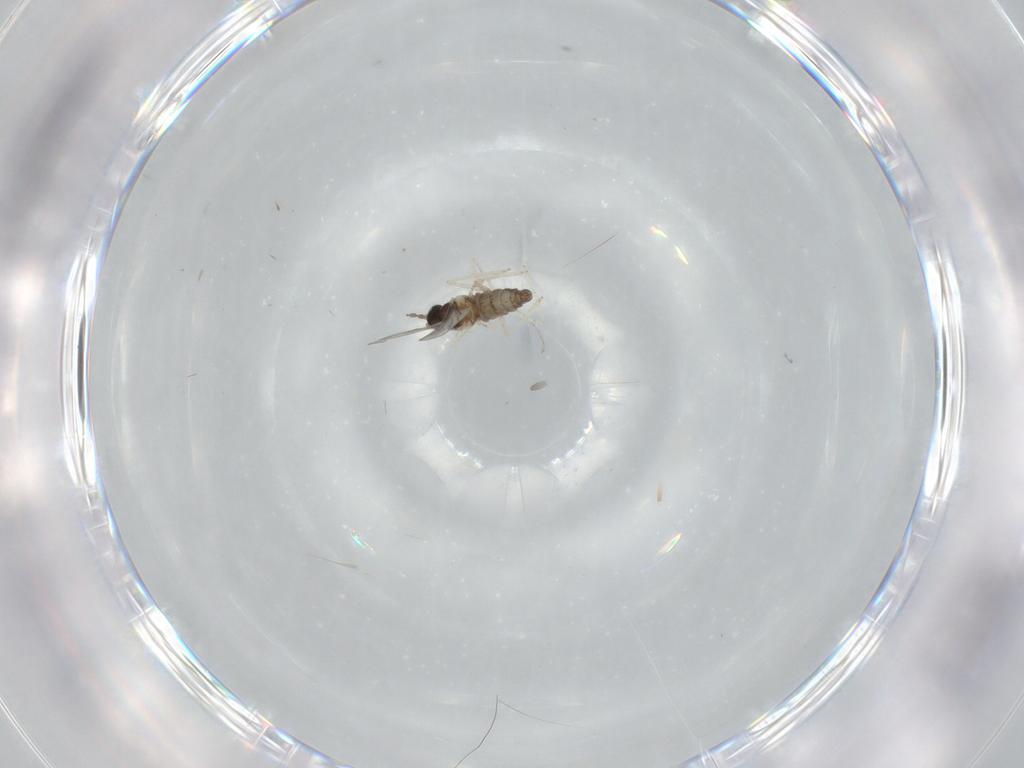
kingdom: Animalia
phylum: Arthropoda
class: Insecta
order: Diptera
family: Cecidomyiidae
